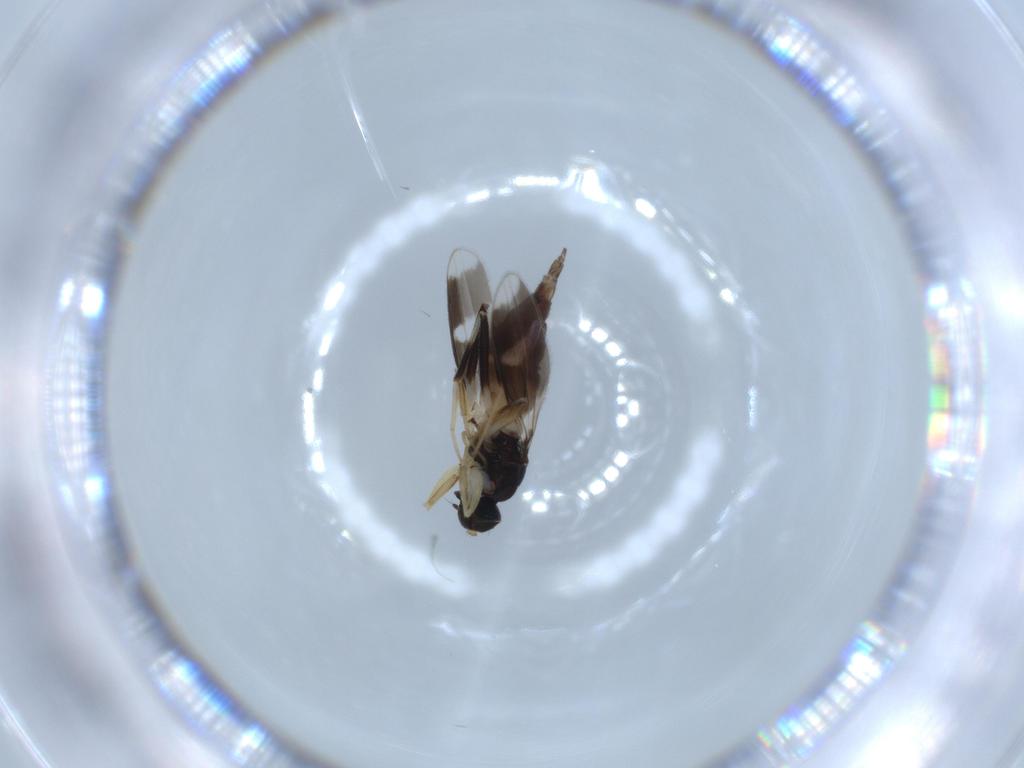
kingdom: Animalia
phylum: Arthropoda
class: Insecta
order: Diptera
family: Hybotidae
